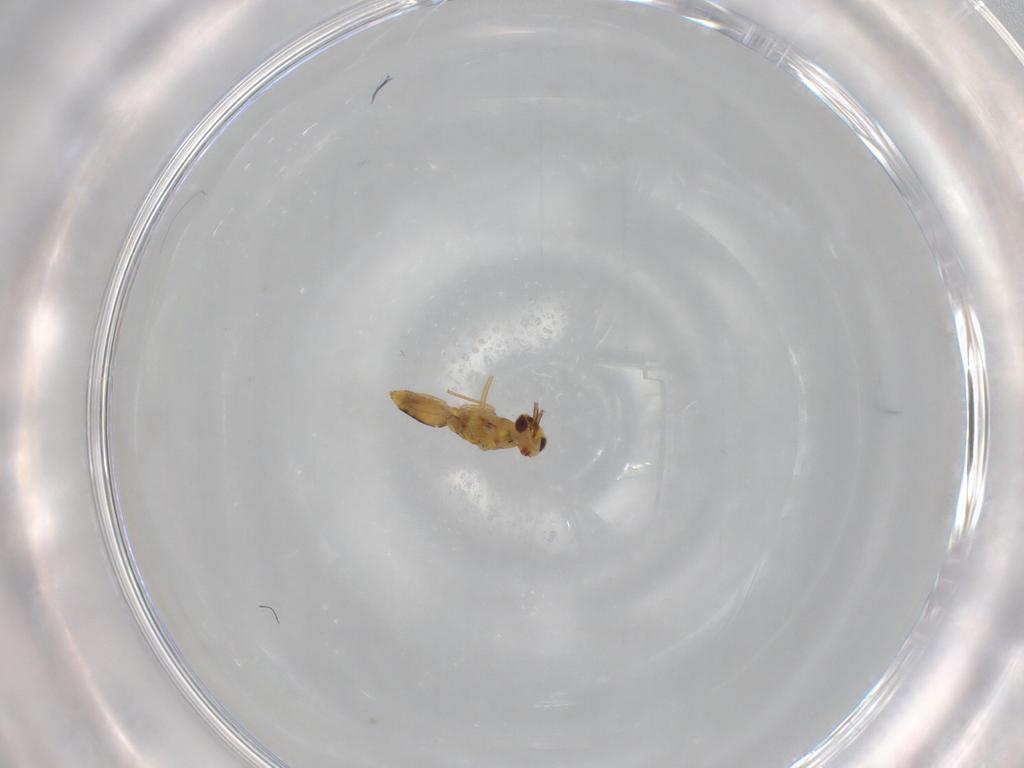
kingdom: Animalia
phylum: Arthropoda
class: Insecta
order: Hymenoptera
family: Eulophidae
